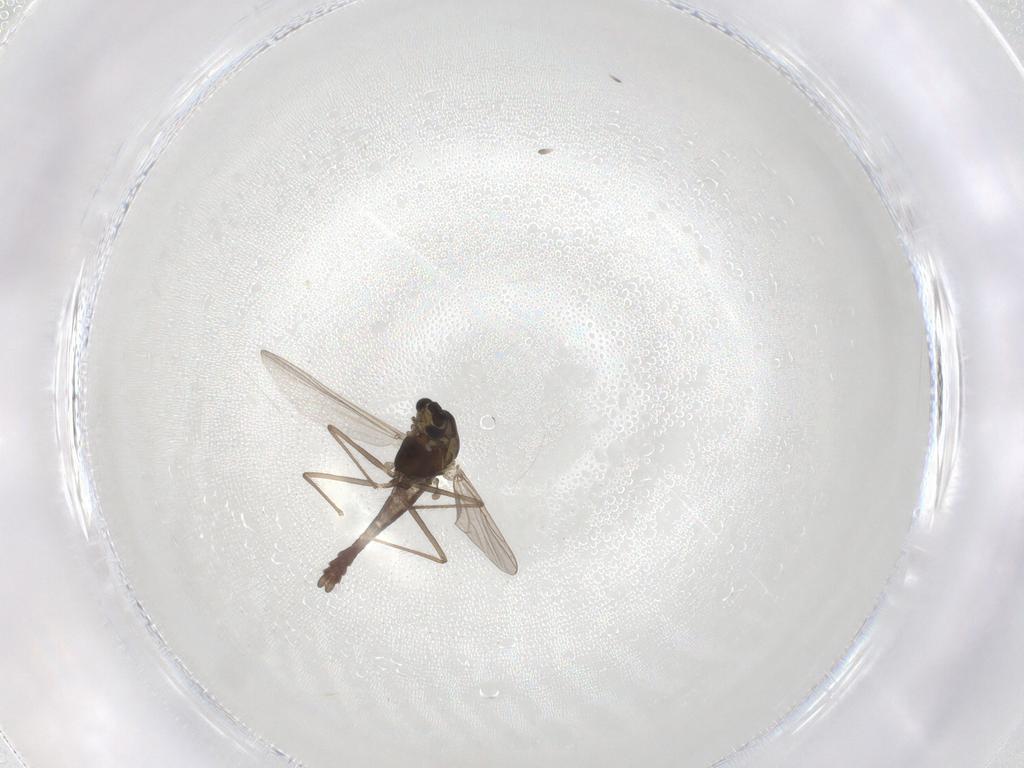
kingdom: Animalia
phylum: Arthropoda
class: Insecta
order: Diptera
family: Chironomidae
